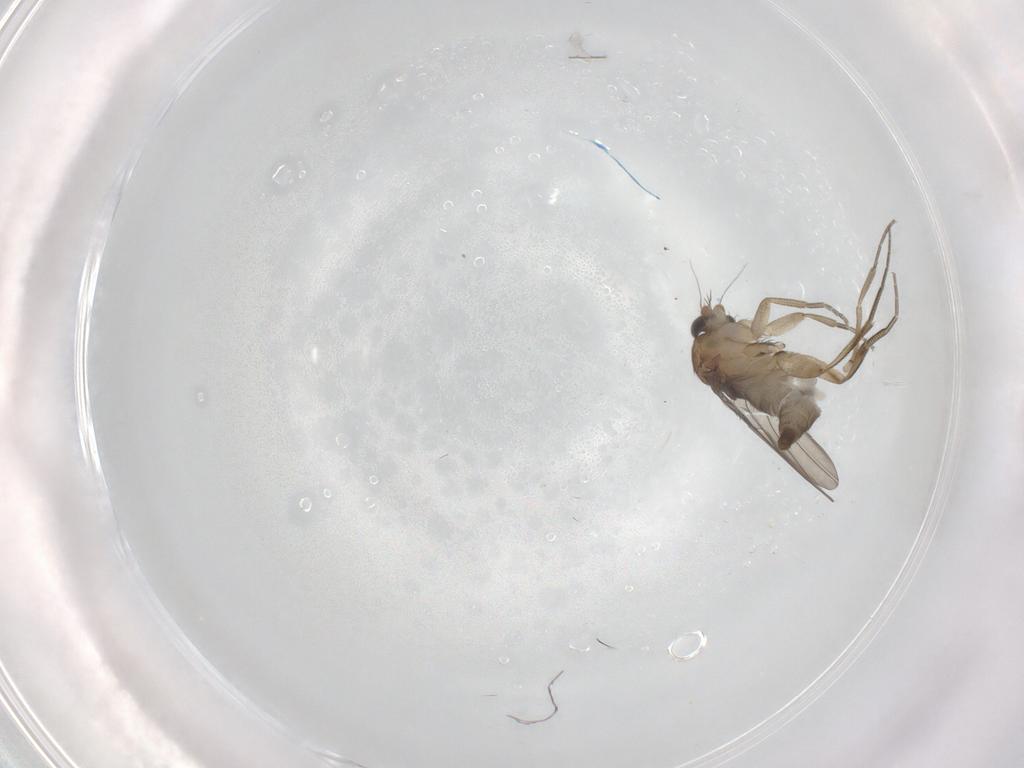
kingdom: Animalia
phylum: Arthropoda
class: Insecta
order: Diptera
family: Phoridae
